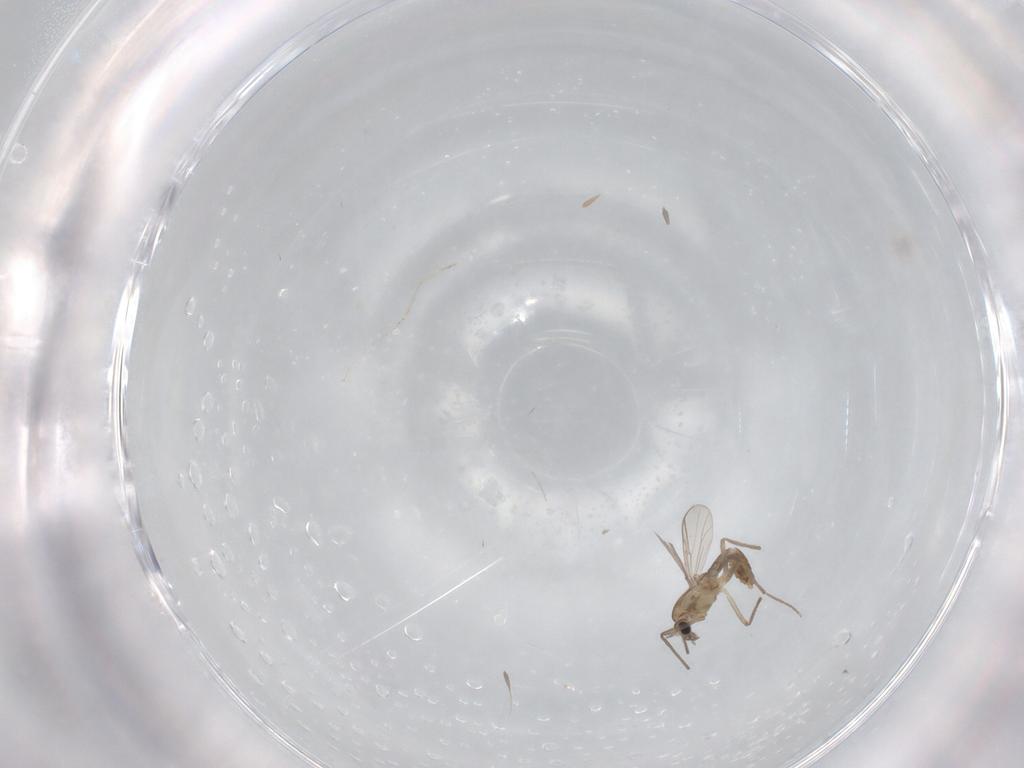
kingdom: Animalia
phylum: Arthropoda
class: Insecta
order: Diptera
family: Chironomidae
